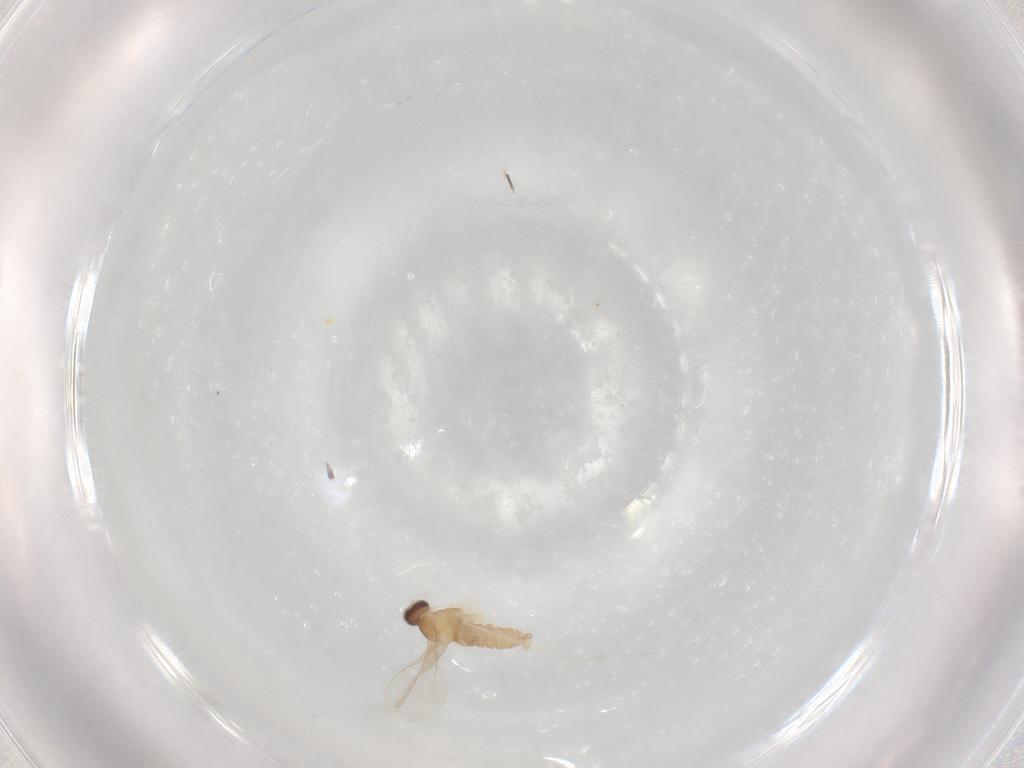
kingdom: Animalia
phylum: Arthropoda
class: Insecta
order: Diptera
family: Cecidomyiidae
